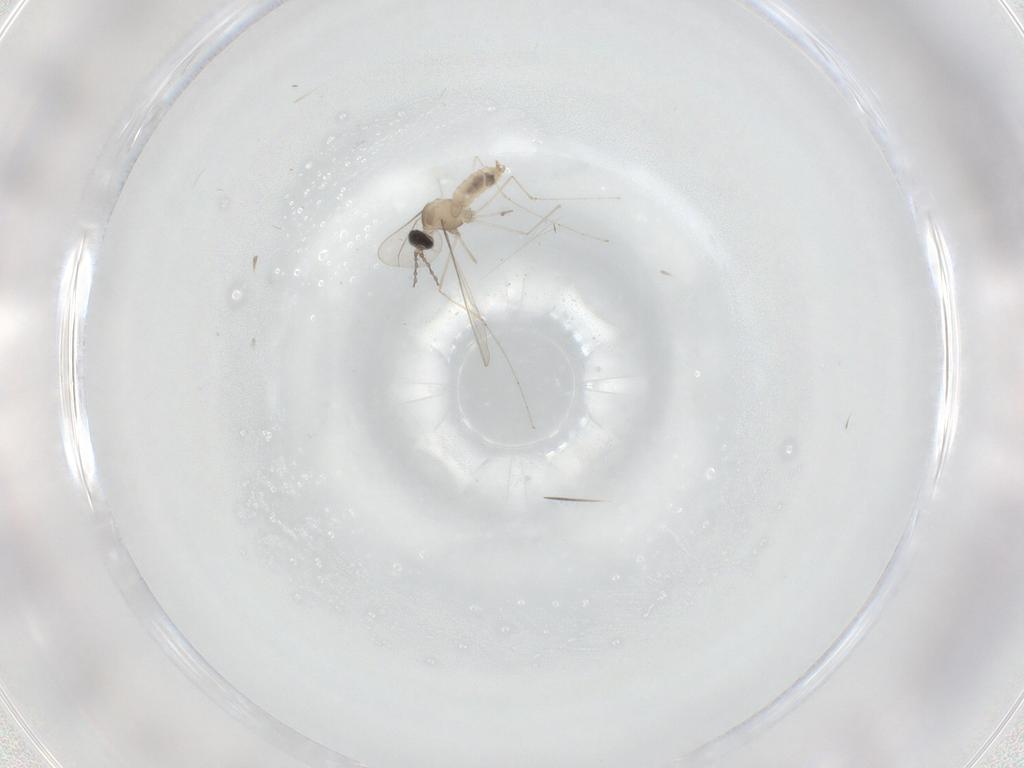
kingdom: Animalia
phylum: Arthropoda
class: Insecta
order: Diptera
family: Cecidomyiidae
